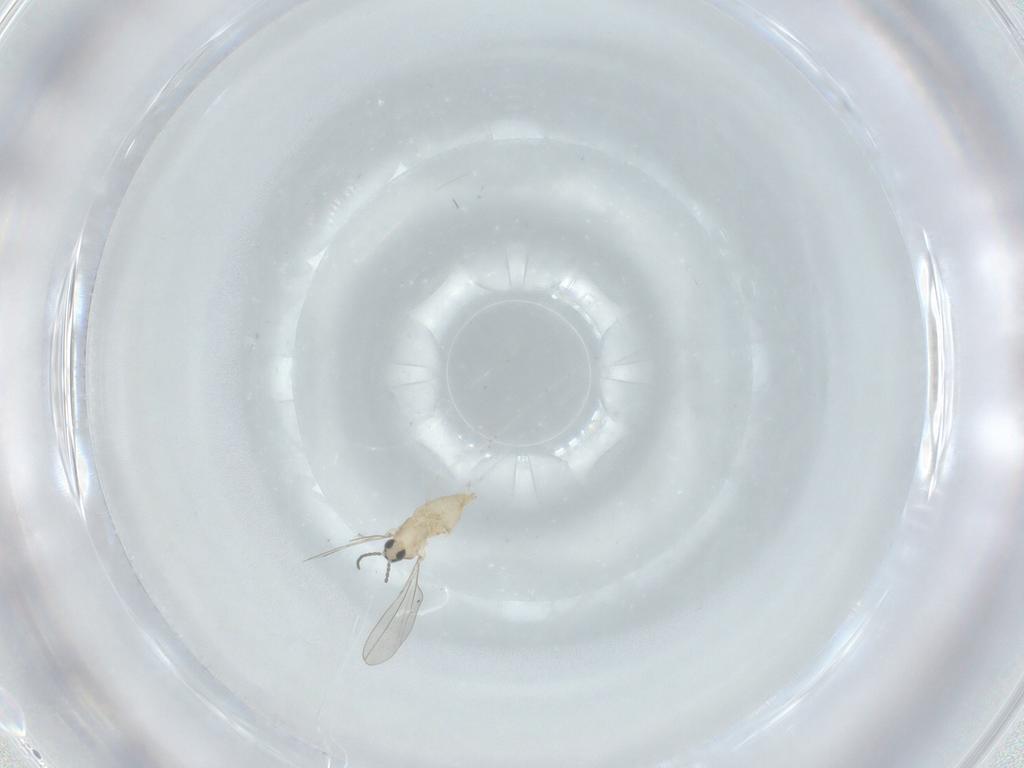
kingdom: Animalia
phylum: Arthropoda
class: Insecta
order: Diptera
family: Cecidomyiidae
